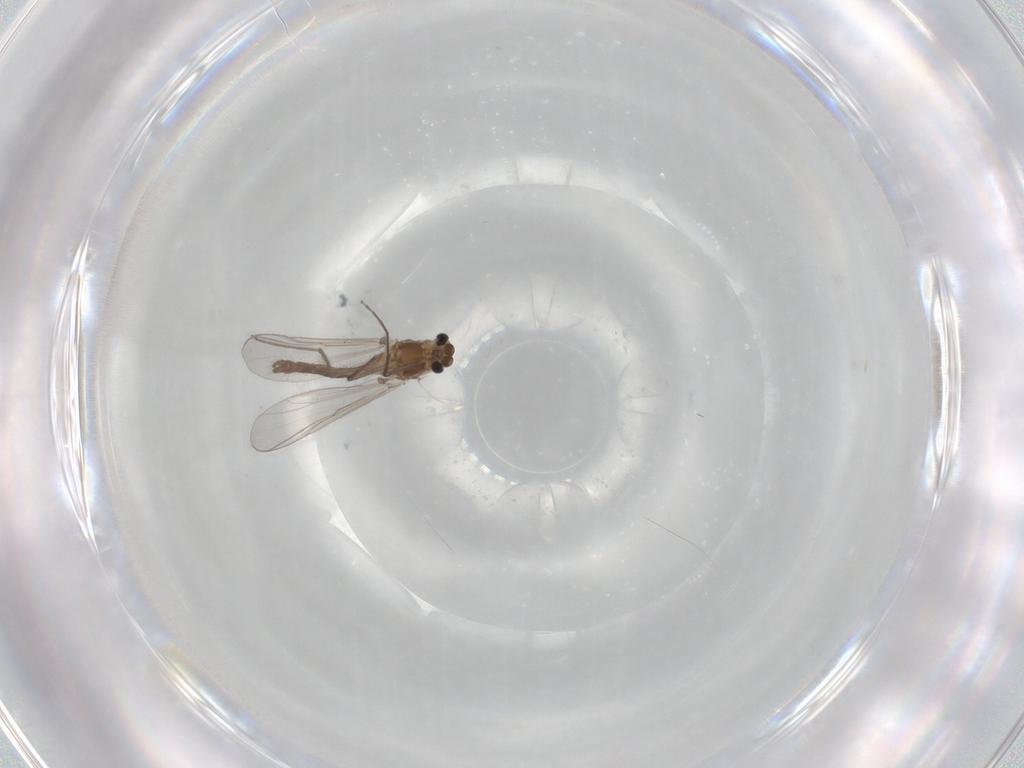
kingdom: Animalia
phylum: Arthropoda
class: Insecta
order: Diptera
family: Chironomidae
